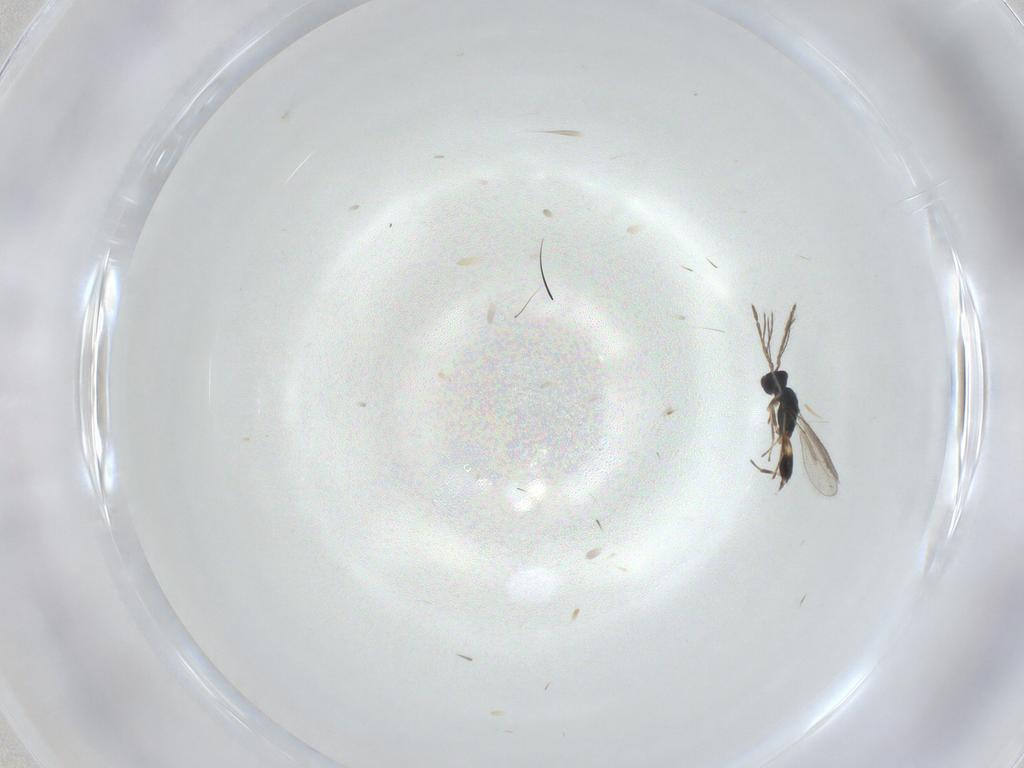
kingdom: Animalia
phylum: Arthropoda
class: Insecta
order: Hymenoptera
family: Eulophidae
